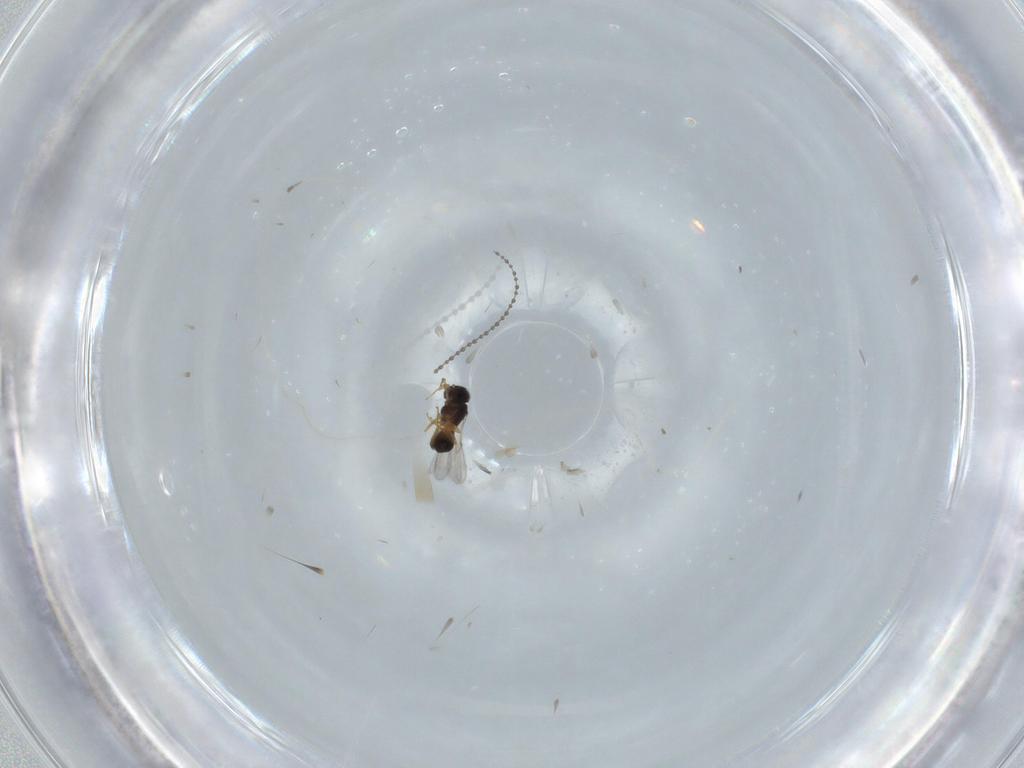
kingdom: Animalia
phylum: Arthropoda
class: Insecta
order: Hymenoptera
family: Scelionidae
